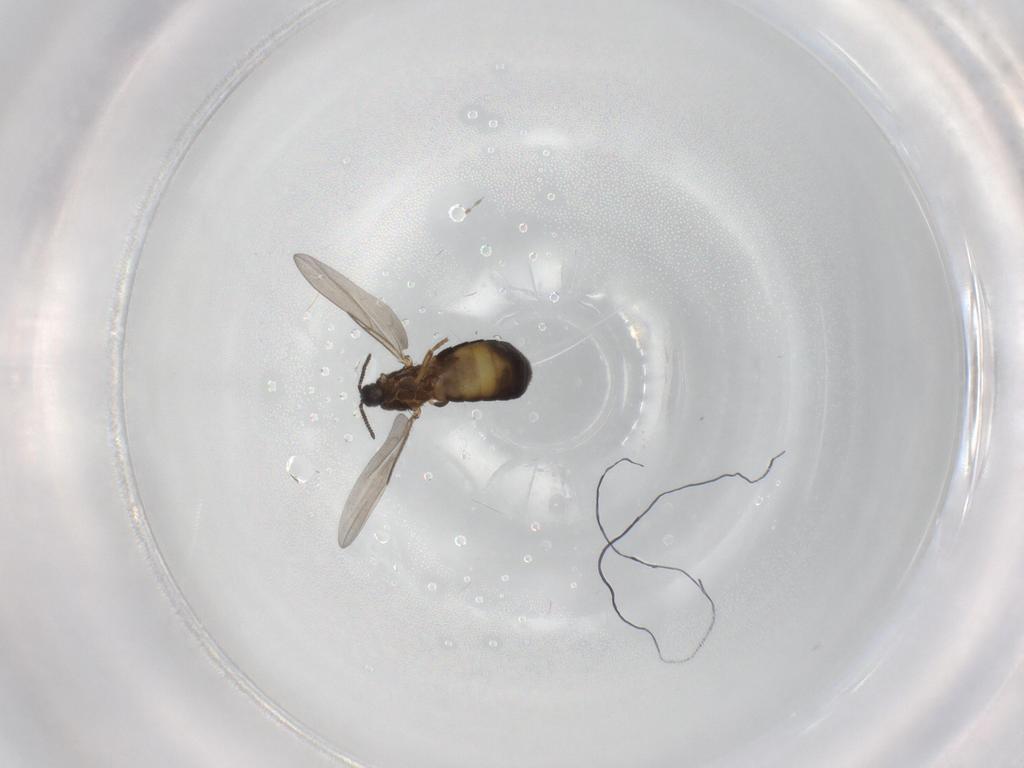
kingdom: Animalia
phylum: Arthropoda
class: Insecta
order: Diptera
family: Scatopsidae
